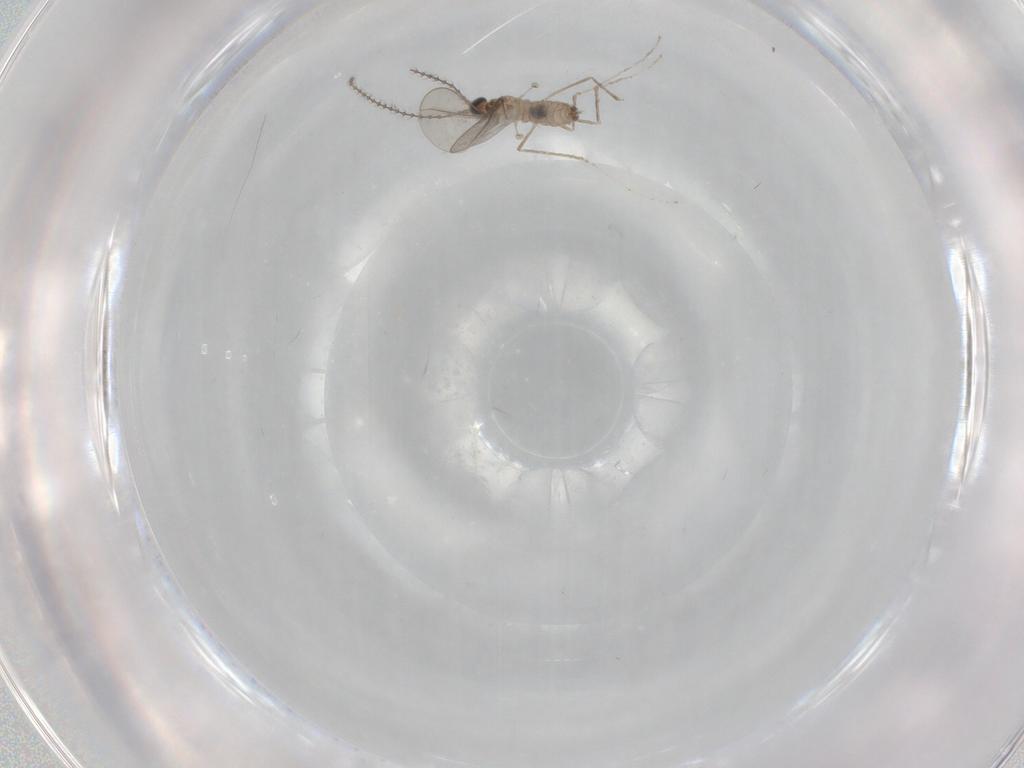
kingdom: Animalia
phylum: Arthropoda
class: Insecta
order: Diptera
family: Cecidomyiidae
